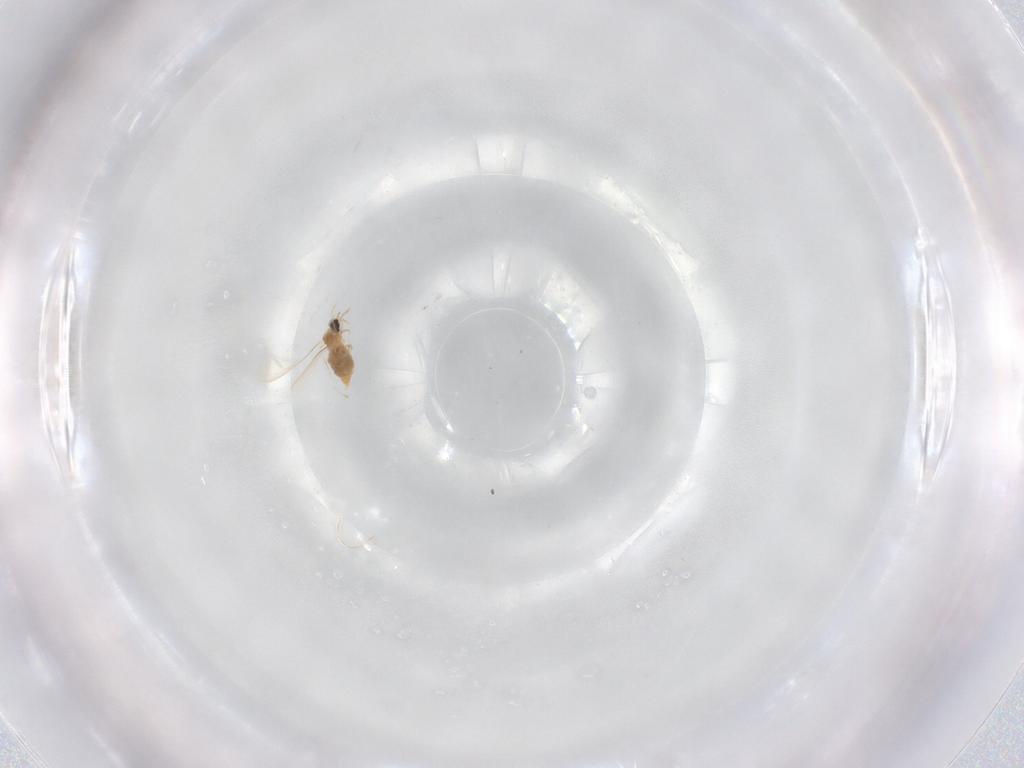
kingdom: Animalia
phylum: Arthropoda
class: Insecta
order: Diptera
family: Cecidomyiidae
